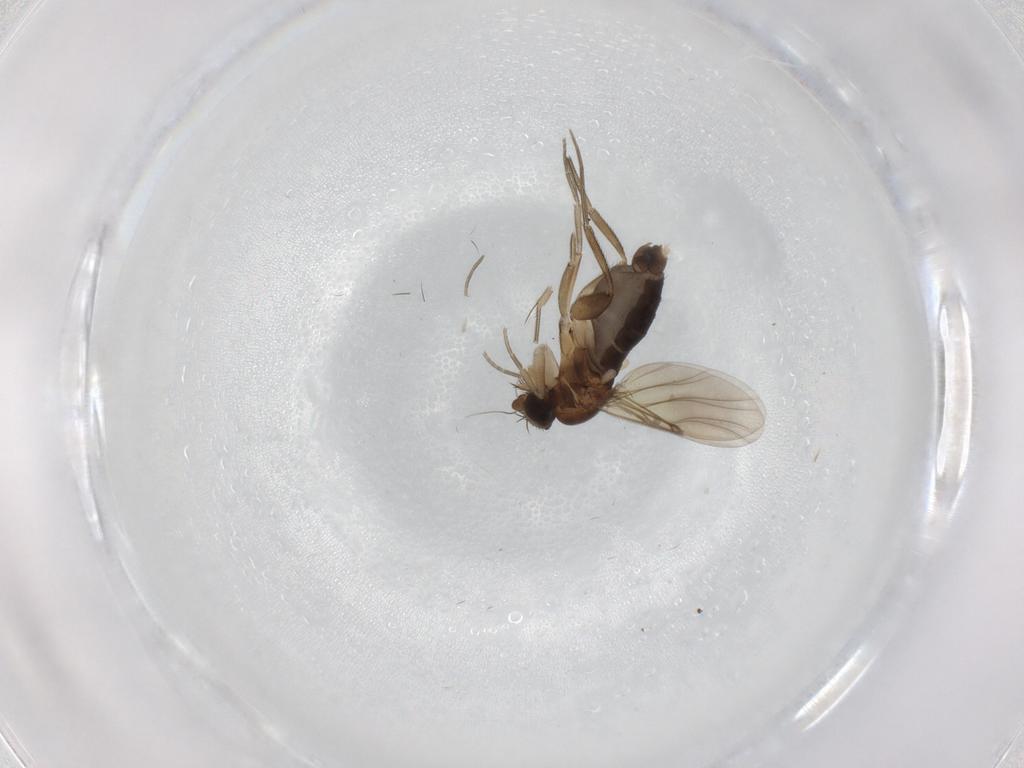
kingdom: Animalia
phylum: Arthropoda
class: Insecta
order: Diptera
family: Phoridae
